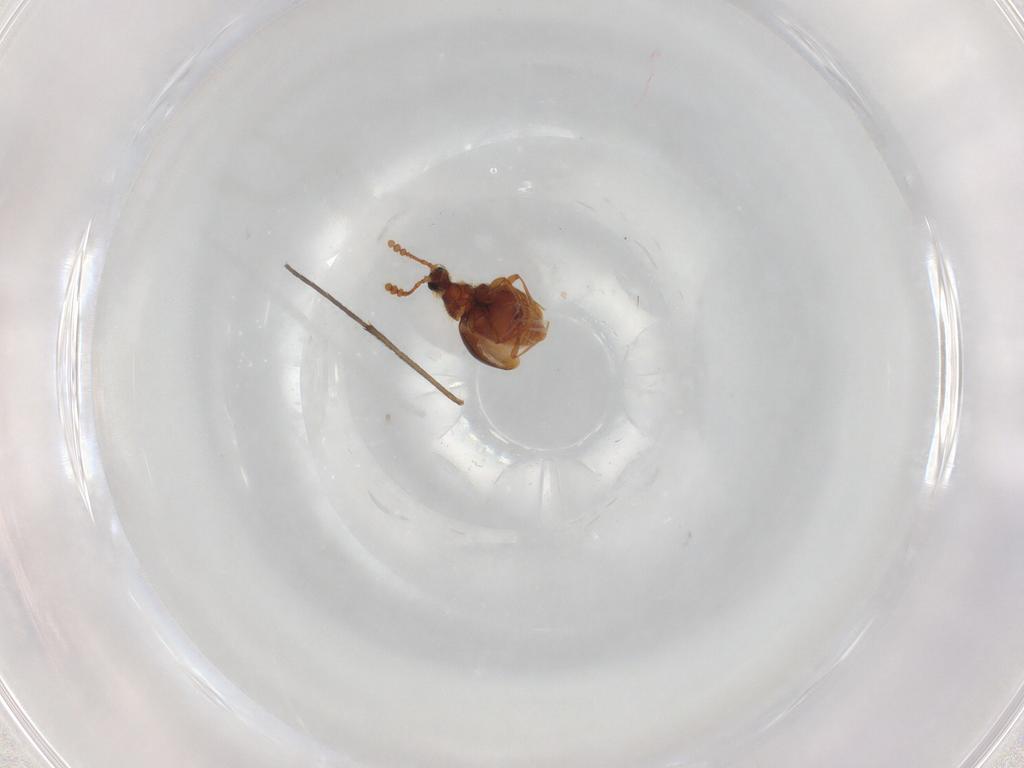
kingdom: Animalia
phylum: Arthropoda
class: Insecta
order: Coleoptera
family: Staphylinidae
